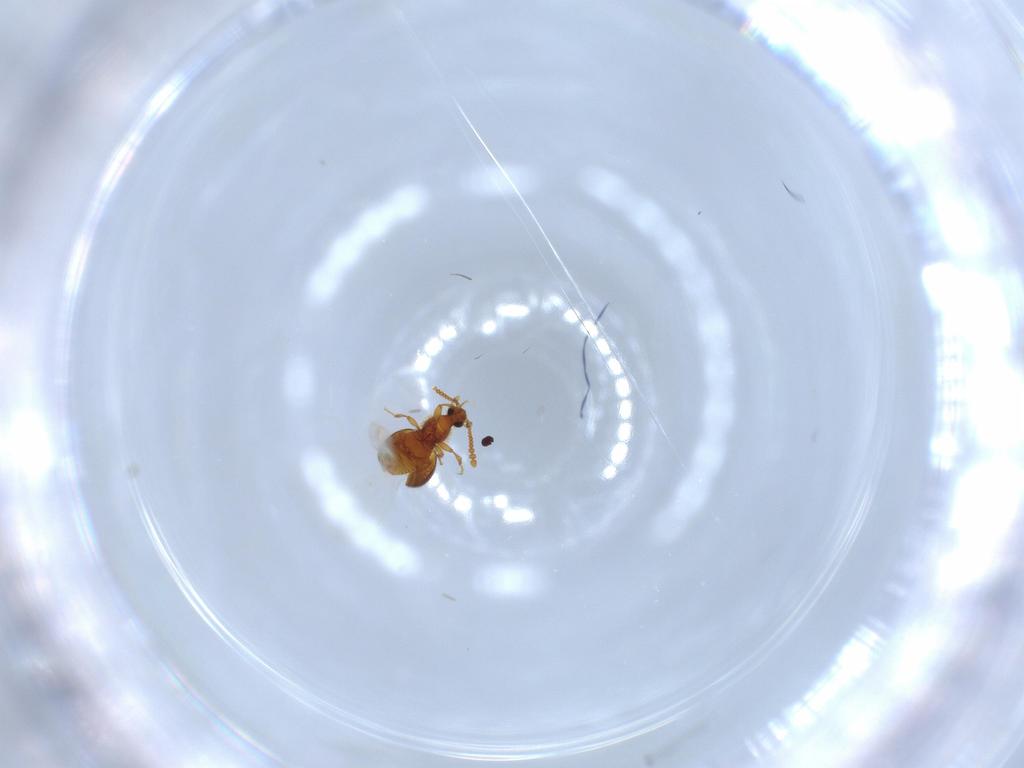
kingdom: Animalia
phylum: Arthropoda
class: Insecta
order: Coleoptera
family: Staphylinidae
